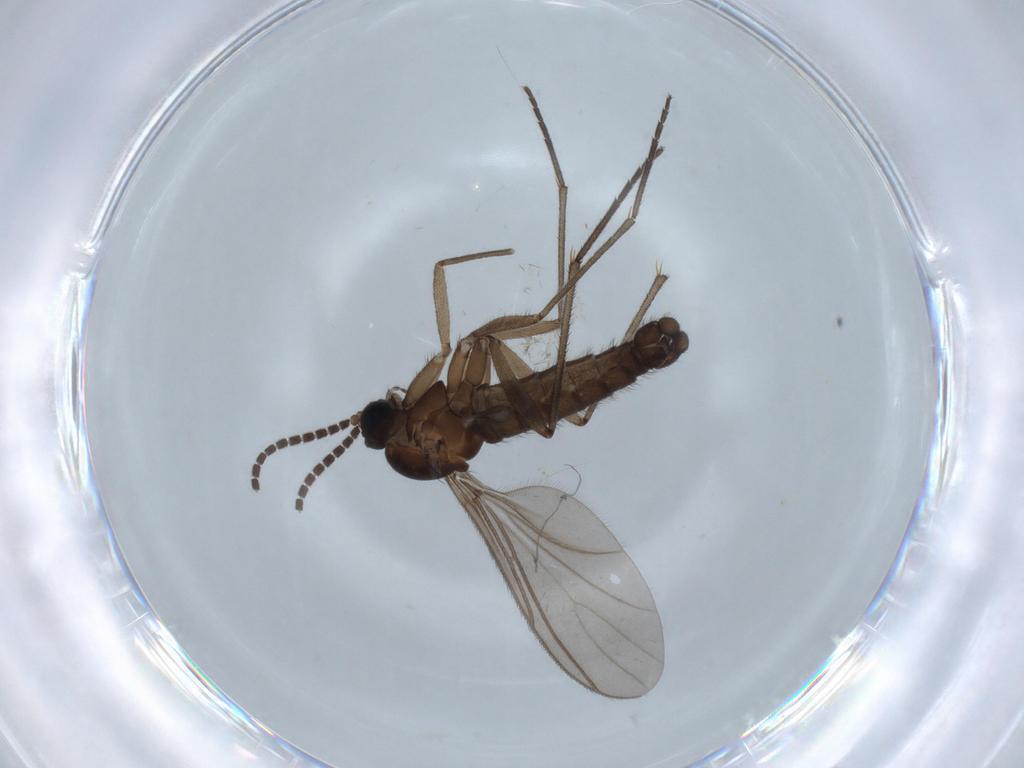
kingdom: Animalia
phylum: Arthropoda
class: Insecta
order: Diptera
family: Sciaridae
